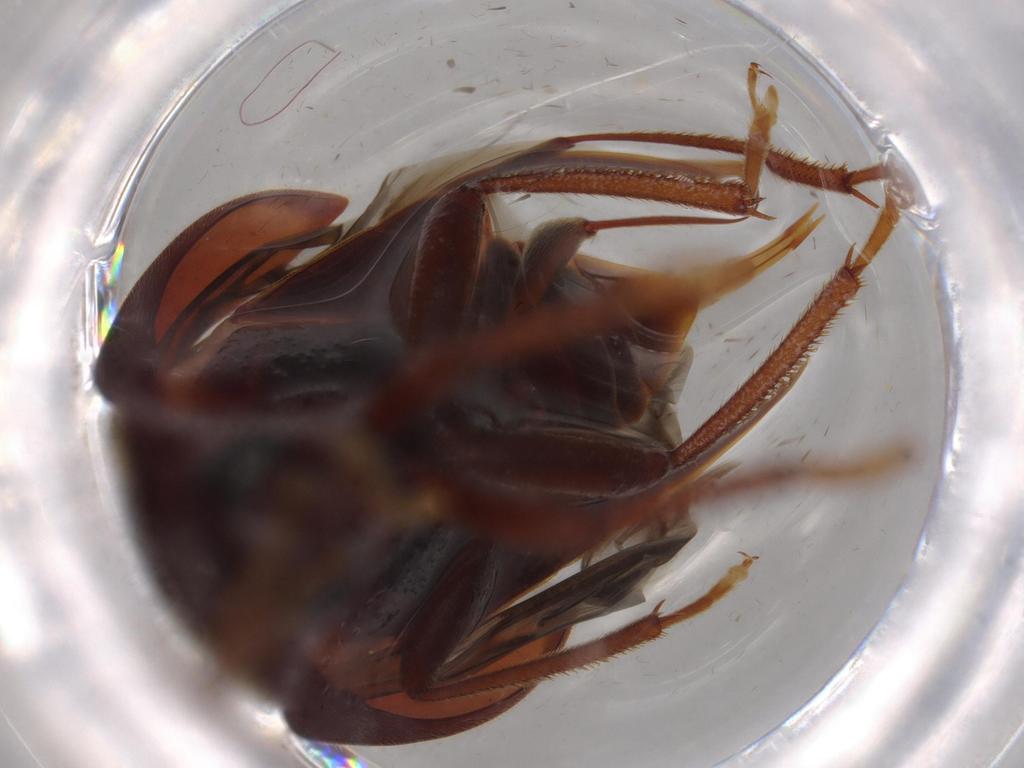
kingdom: Animalia
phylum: Arthropoda
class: Insecta
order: Coleoptera
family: Ptilodactylidae
